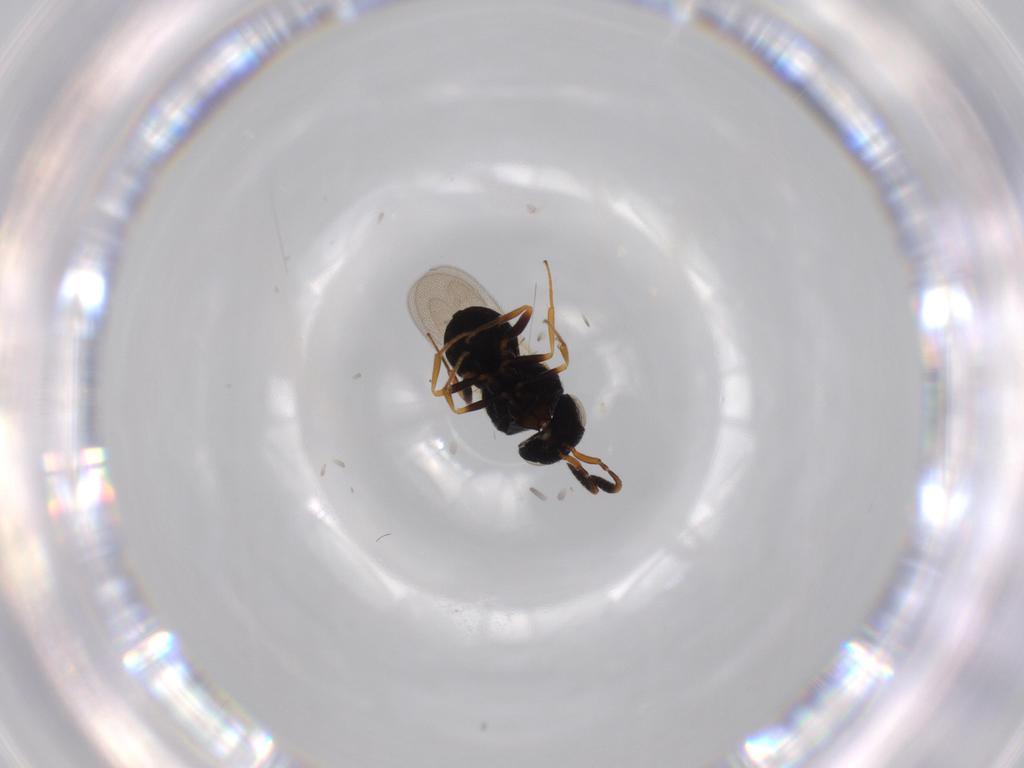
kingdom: Animalia
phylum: Arthropoda
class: Insecta
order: Hymenoptera
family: Scelionidae
